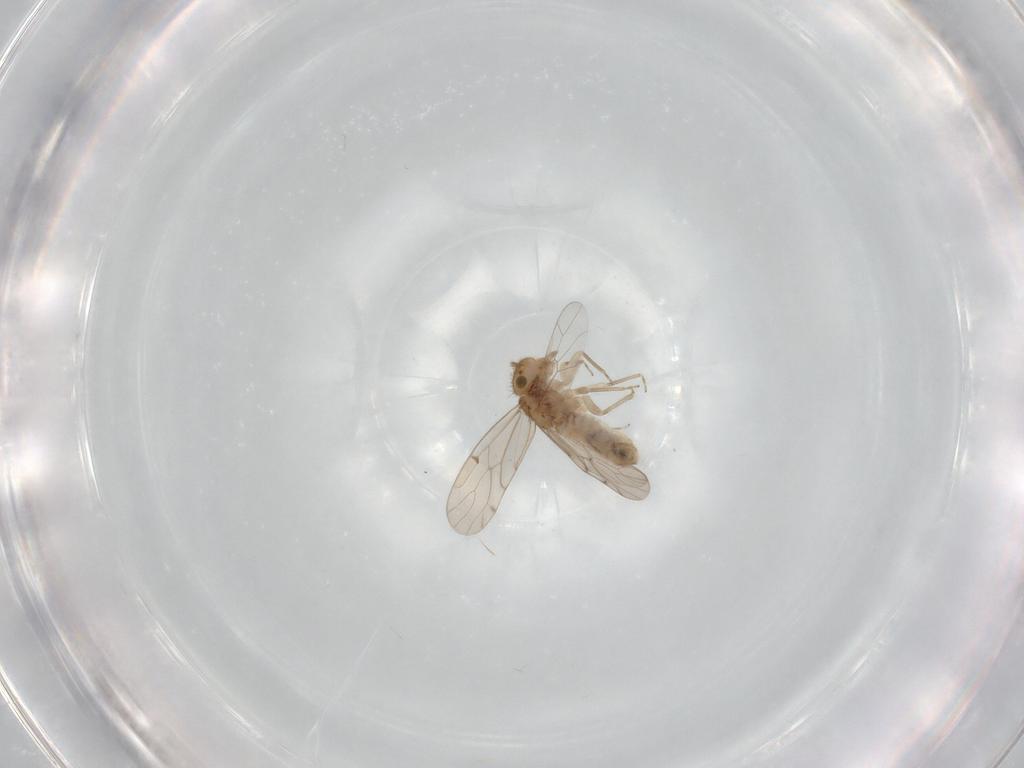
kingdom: Animalia
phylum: Arthropoda
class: Insecta
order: Psocodea
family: Ectopsocidae
